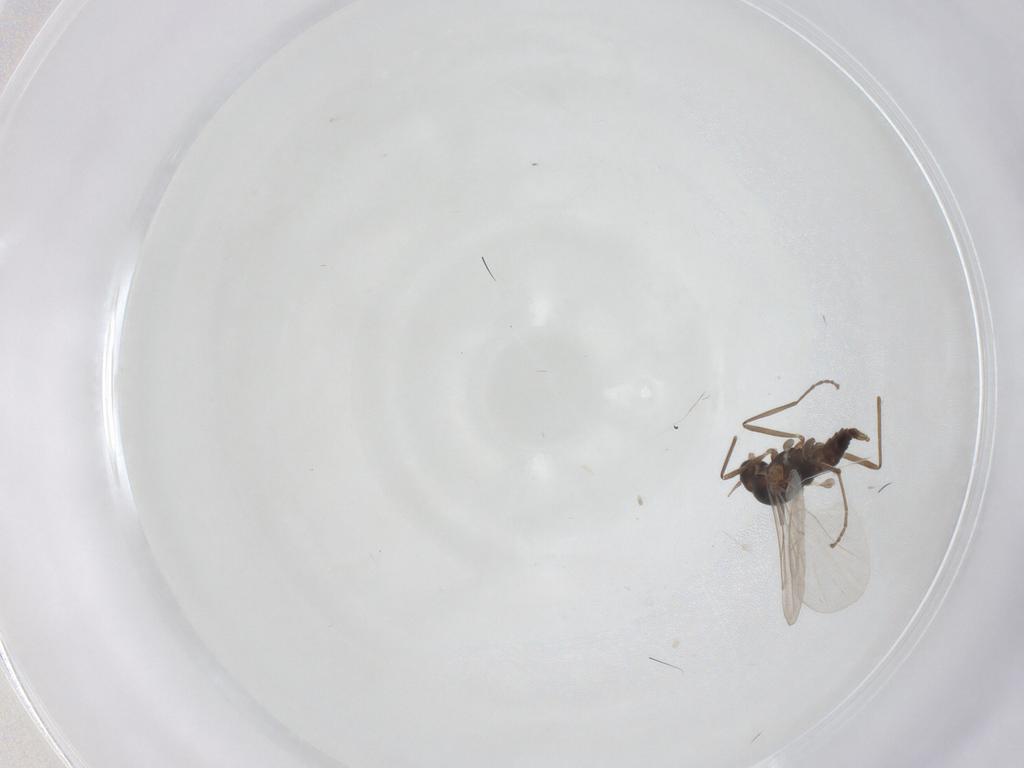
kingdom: Animalia
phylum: Arthropoda
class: Insecta
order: Diptera
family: Cecidomyiidae
